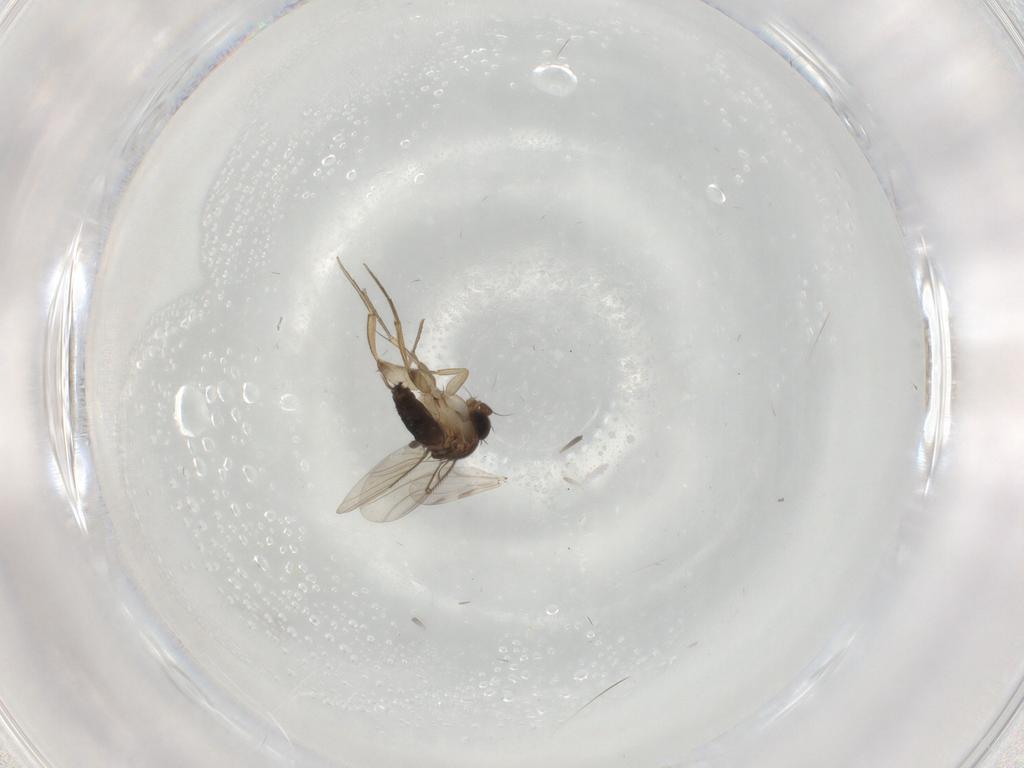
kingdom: Animalia
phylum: Arthropoda
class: Insecta
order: Diptera
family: Phoridae
